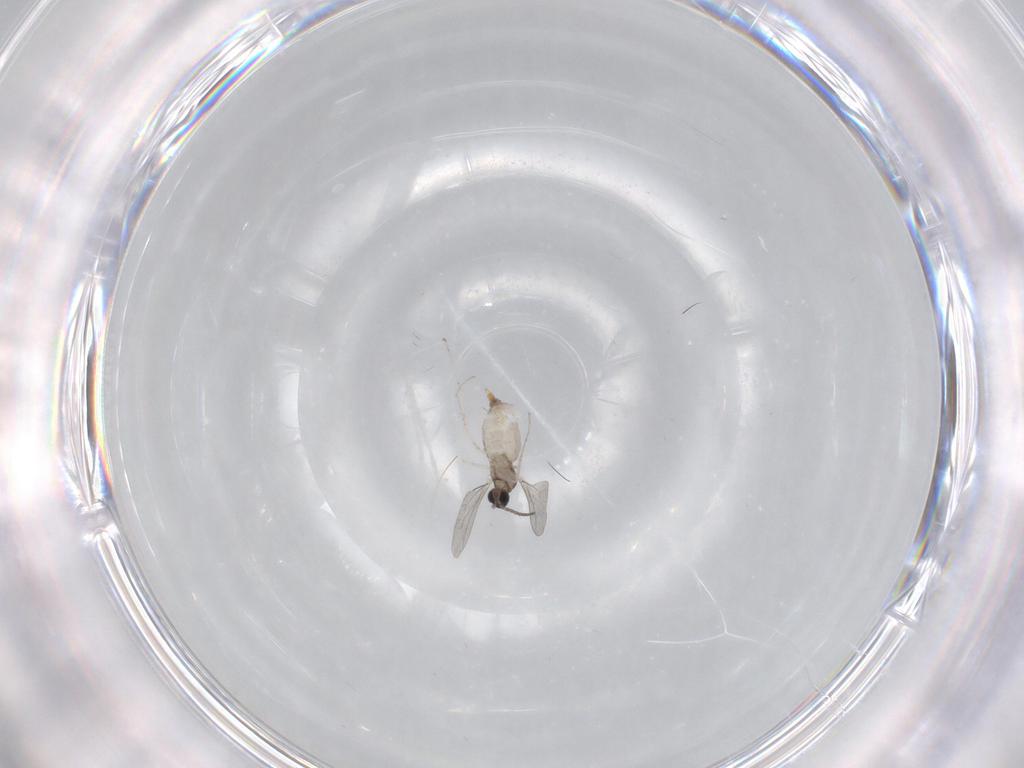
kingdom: Animalia
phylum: Arthropoda
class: Insecta
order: Diptera
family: Cecidomyiidae
